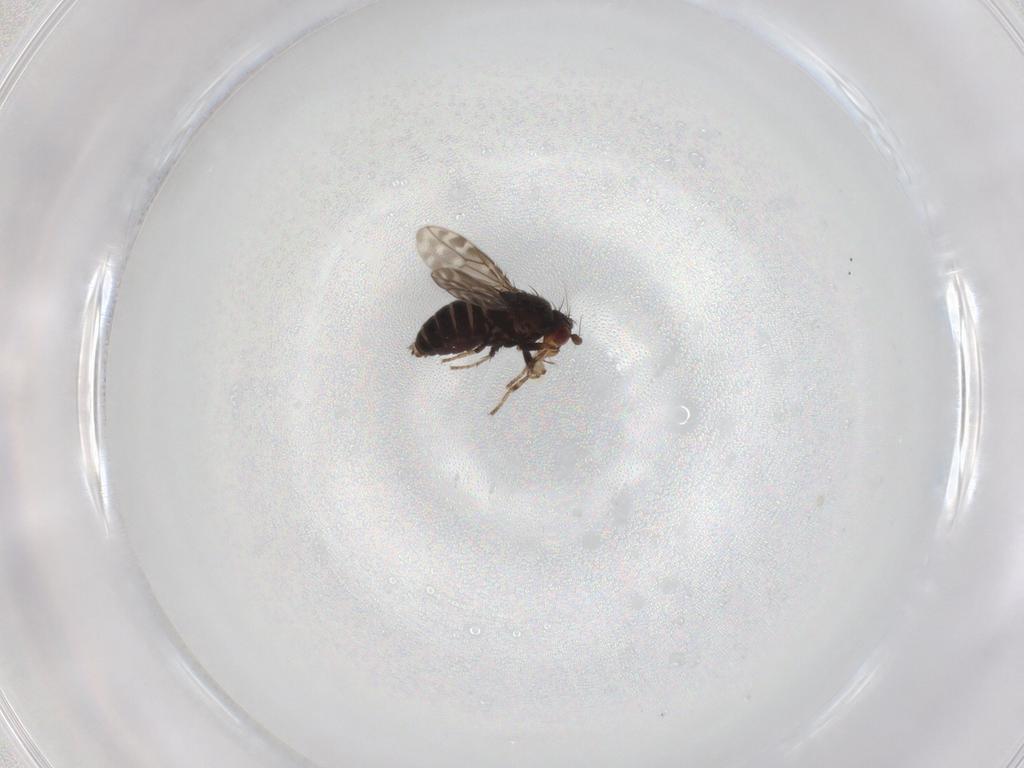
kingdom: Animalia
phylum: Arthropoda
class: Insecta
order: Diptera
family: Sphaeroceridae
